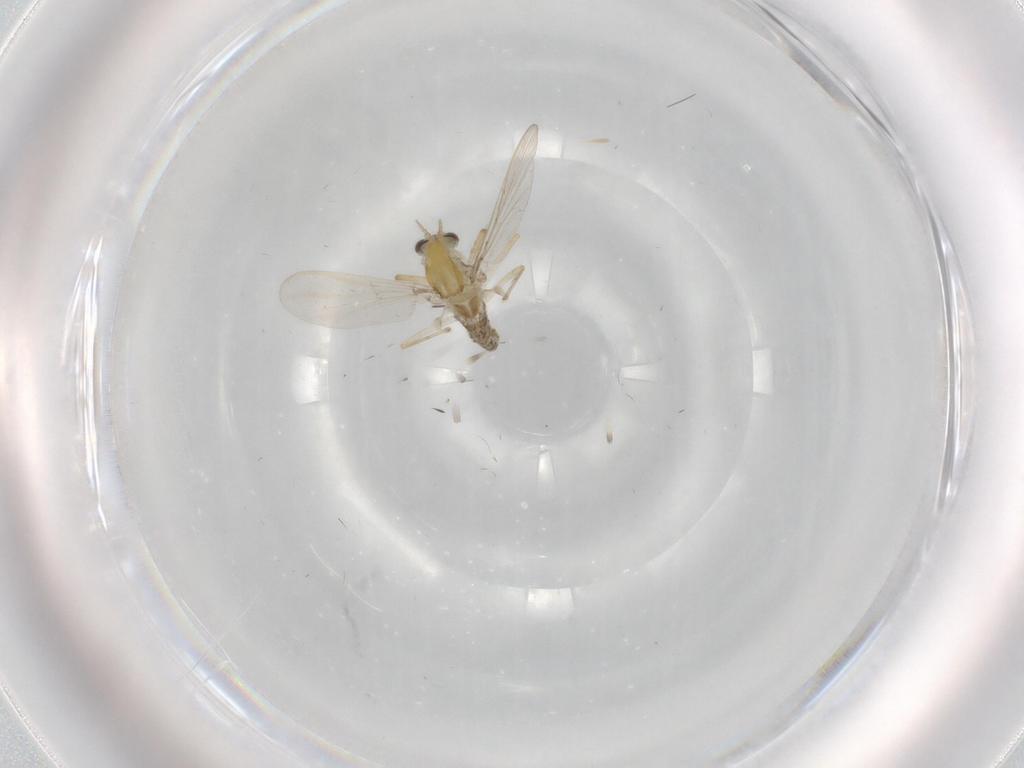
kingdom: Animalia
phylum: Arthropoda
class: Insecta
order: Diptera
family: Chironomidae
